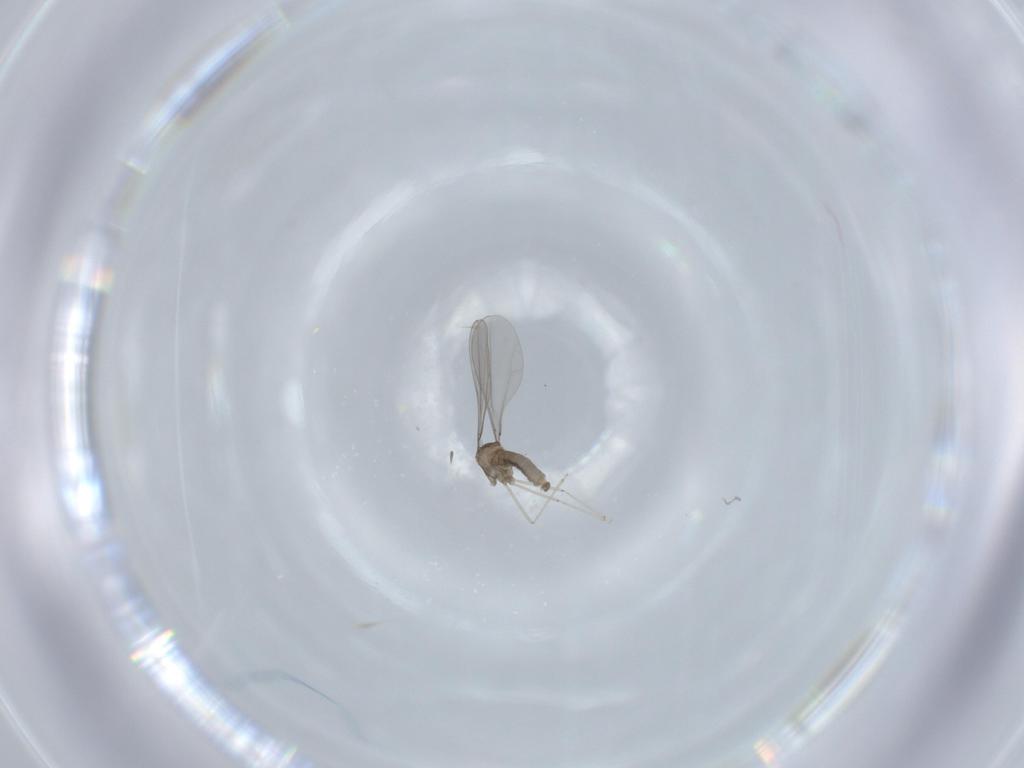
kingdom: Animalia
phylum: Arthropoda
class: Insecta
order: Diptera
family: Cecidomyiidae
